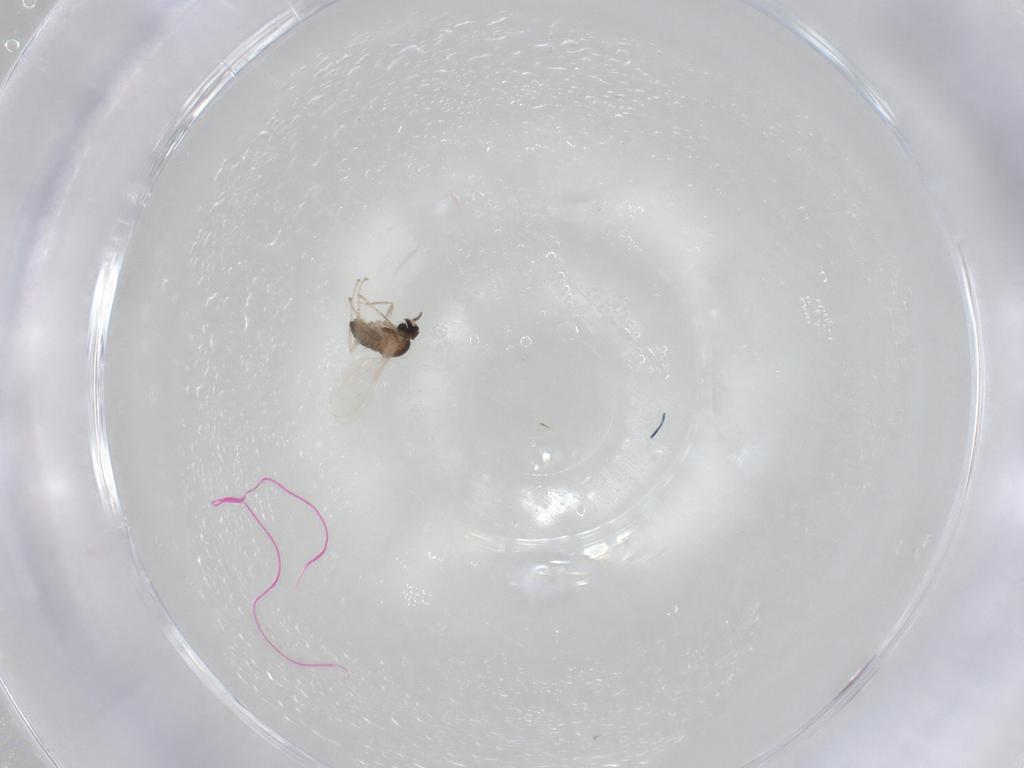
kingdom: Animalia
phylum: Arthropoda
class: Insecta
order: Diptera
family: Cecidomyiidae
